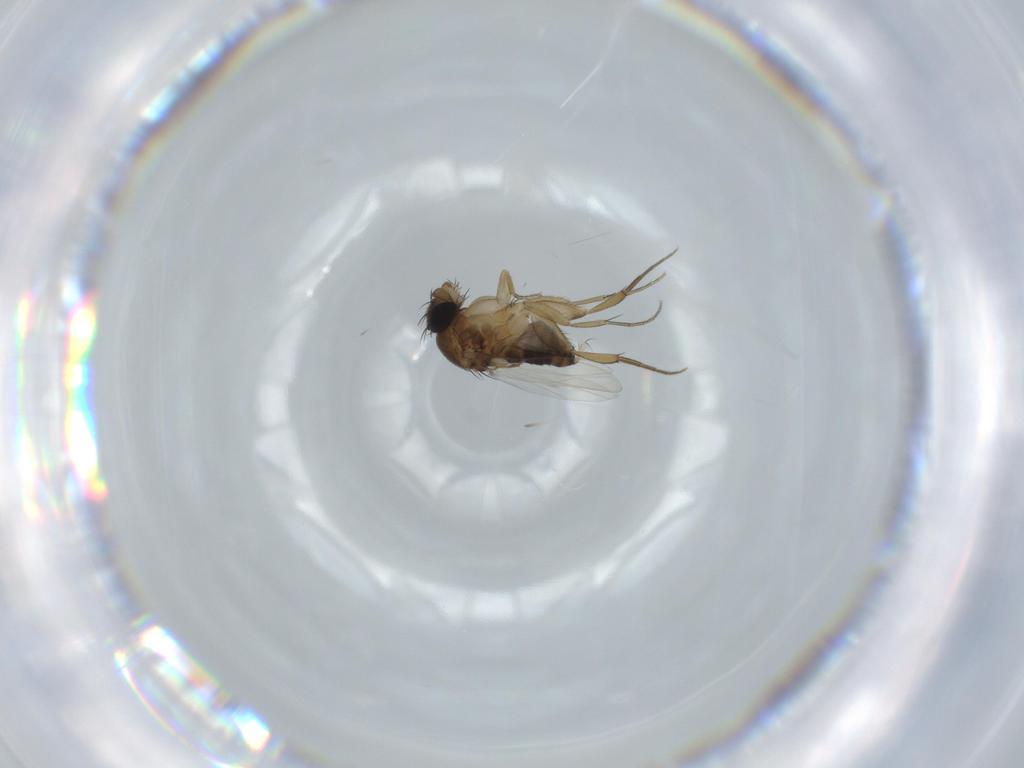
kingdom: Animalia
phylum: Arthropoda
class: Insecta
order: Diptera
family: Phoridae
